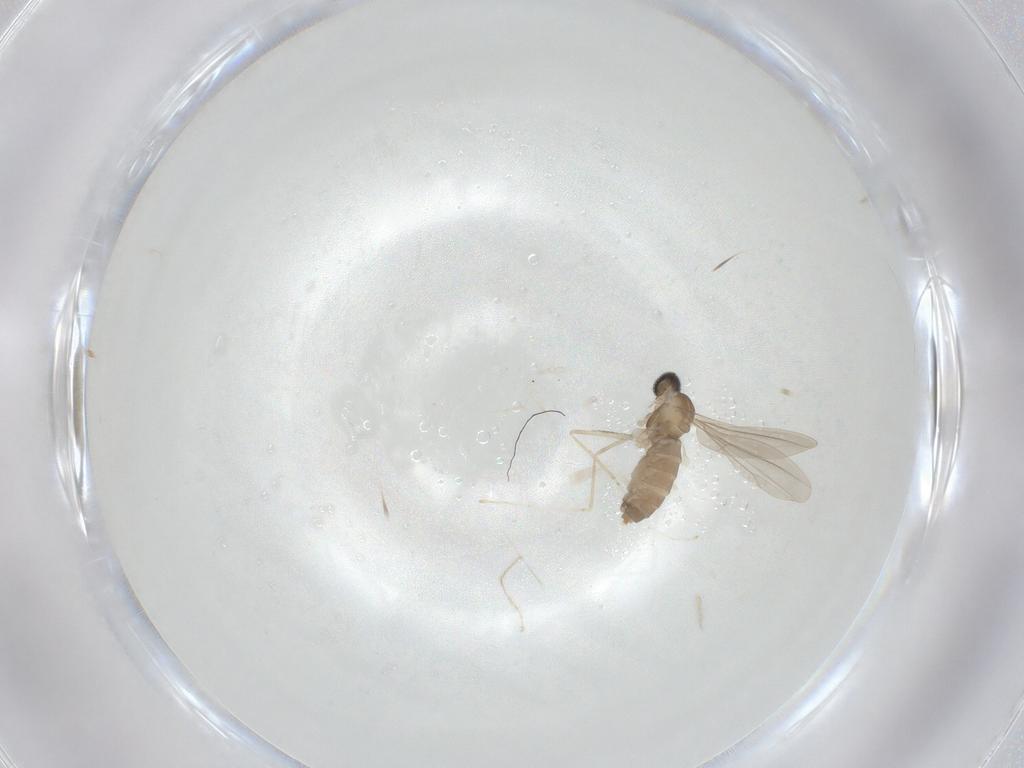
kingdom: Animalia
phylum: Arthropoda
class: Insecta
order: Diptera
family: Cecidomyiidae
